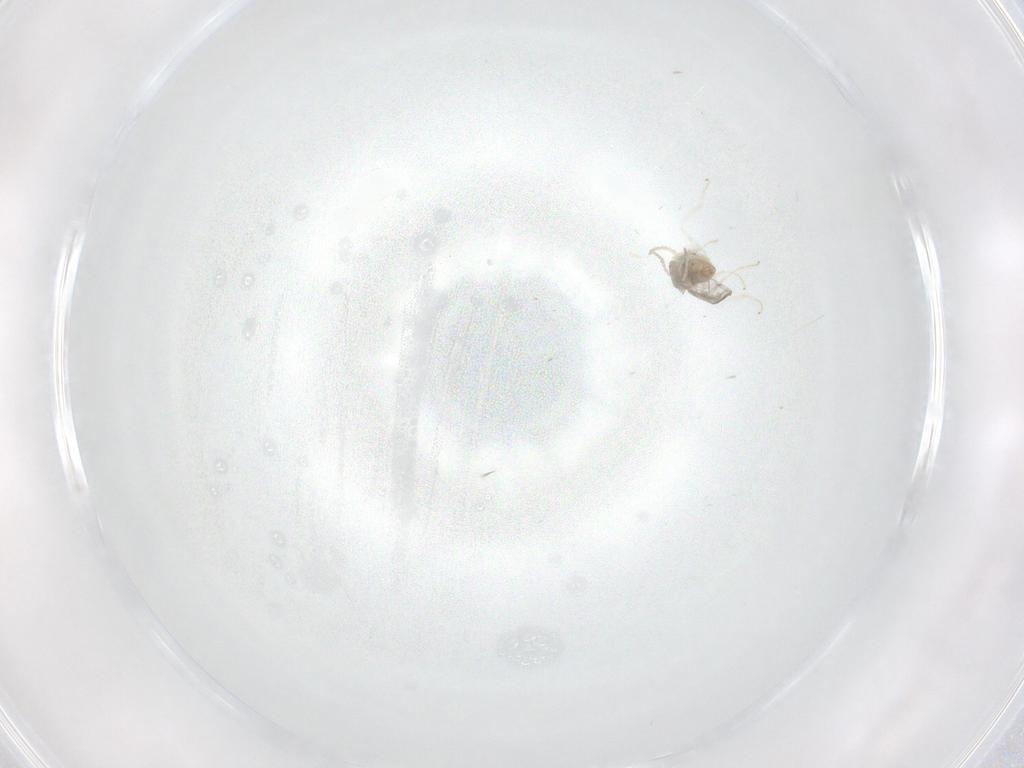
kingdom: Animalia
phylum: Arthropoda
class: Insecta
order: Diptera
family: Cecidomyiidae
